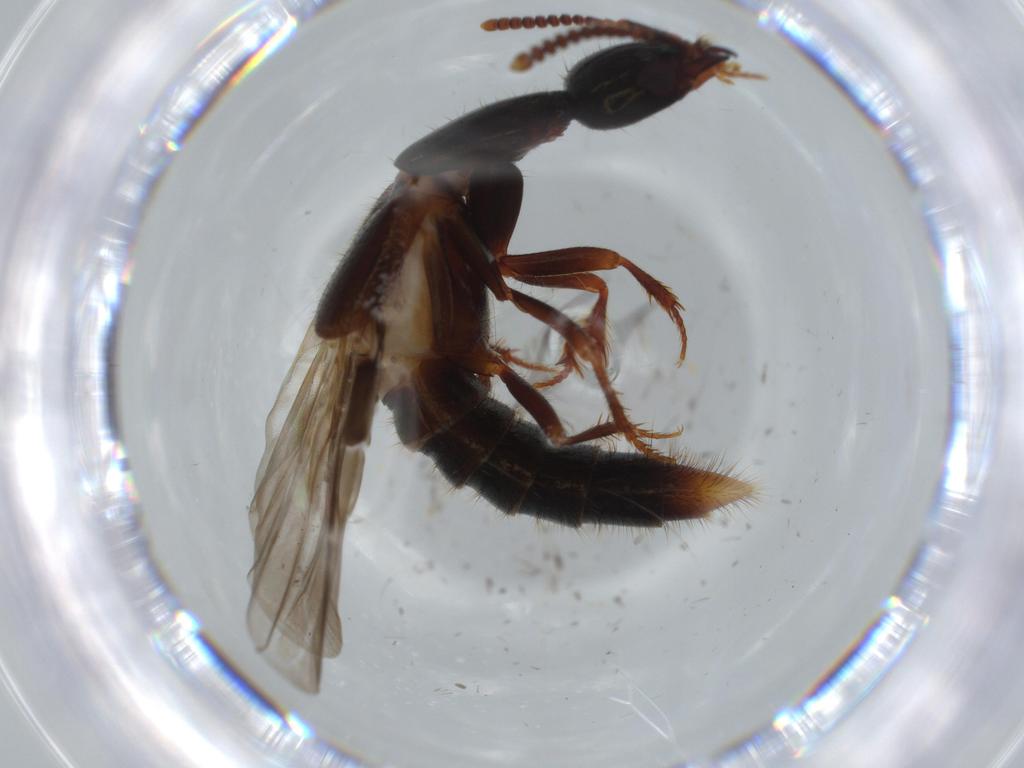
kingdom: Animalia
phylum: Arthropoda
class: Insecta
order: Coleoptera
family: Staphylinidae
